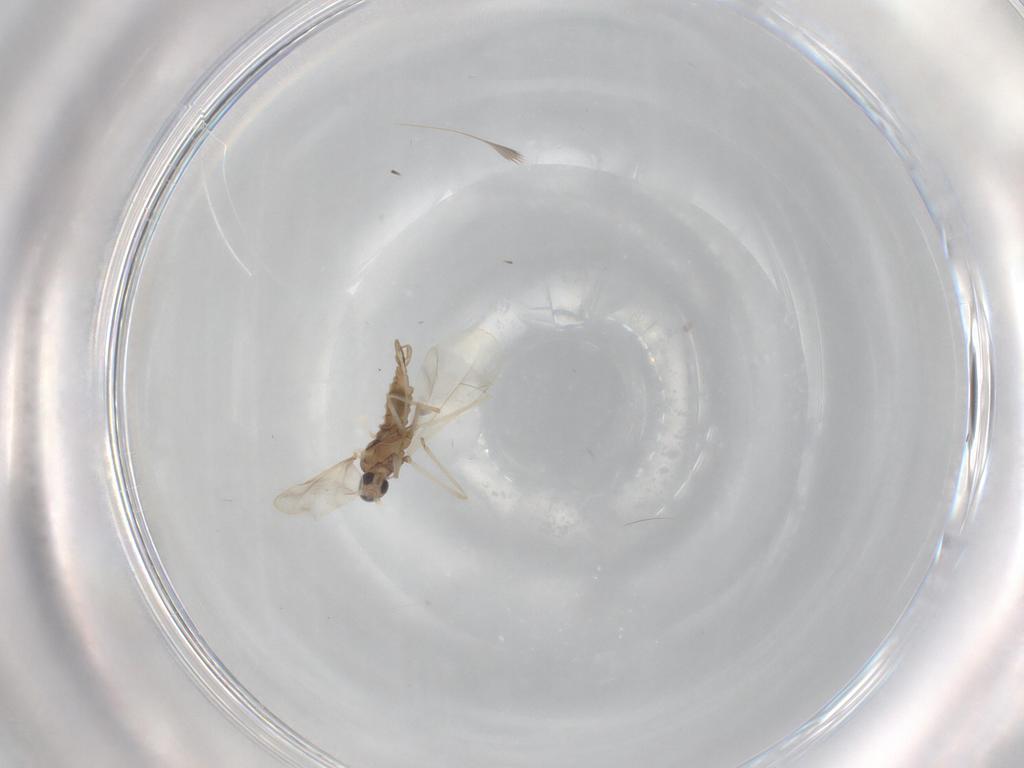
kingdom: Animalia
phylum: Arthropoda
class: Insecta
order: Diptera
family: Cecidomyiidae
